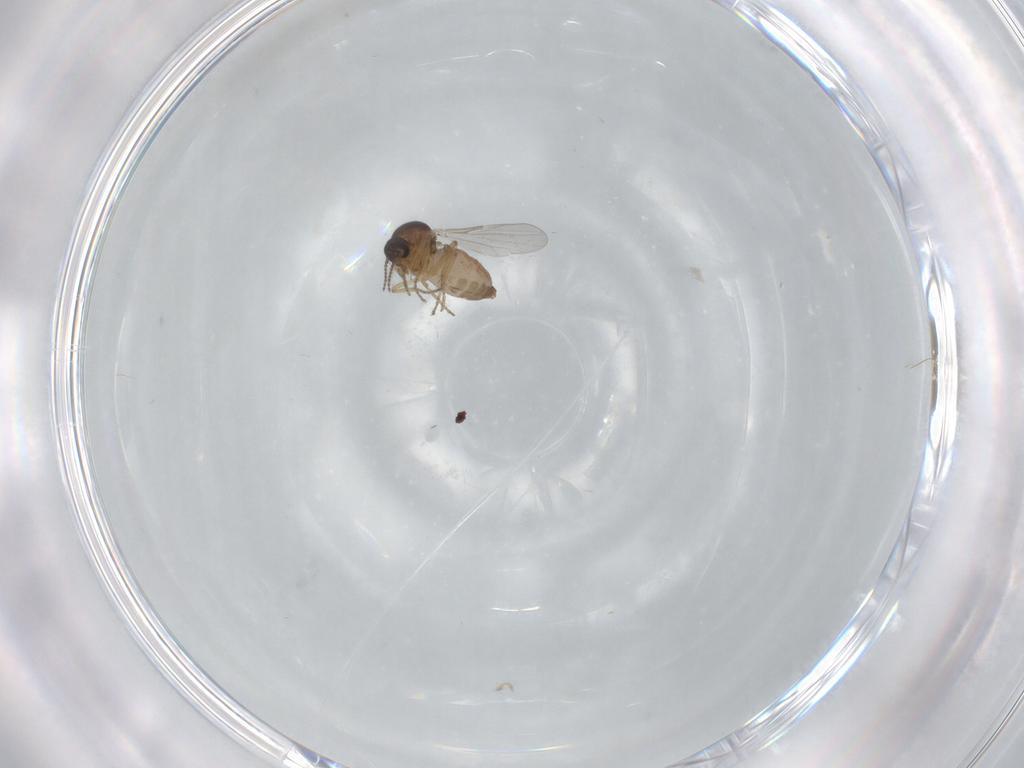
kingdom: Animalia
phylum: Arthropoda
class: Insecta
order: Diptera
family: Ceratopogonidae
